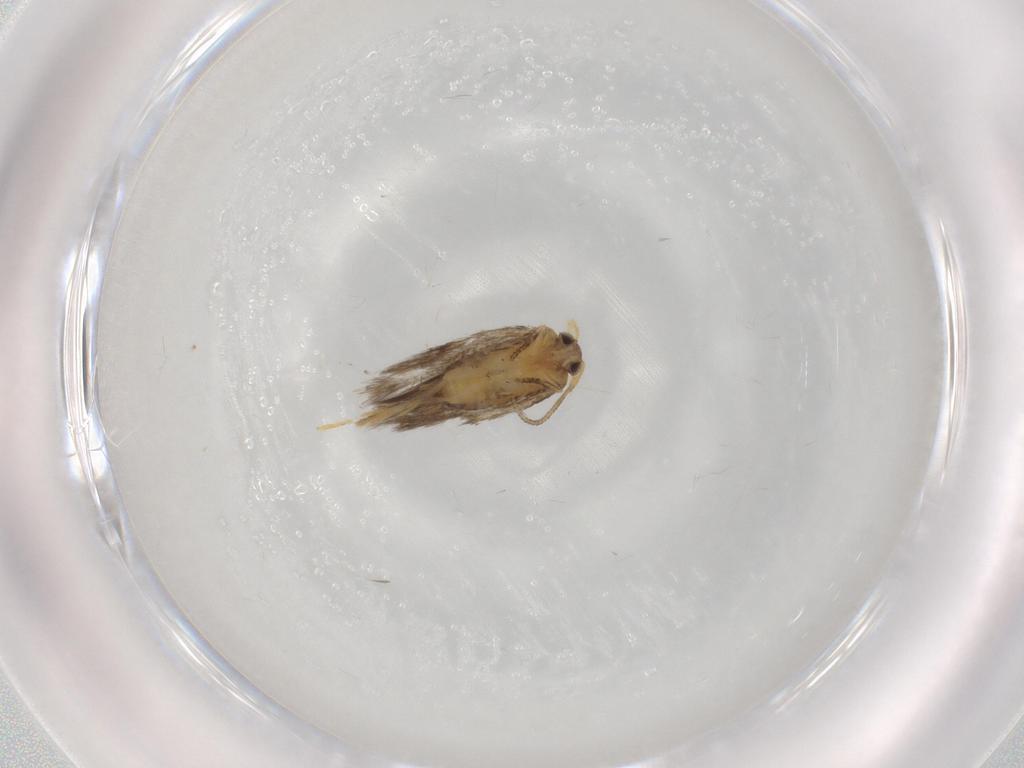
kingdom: Animalia
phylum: Arthropoda
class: Insecta
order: Lepidoptera
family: Nepticulidae
